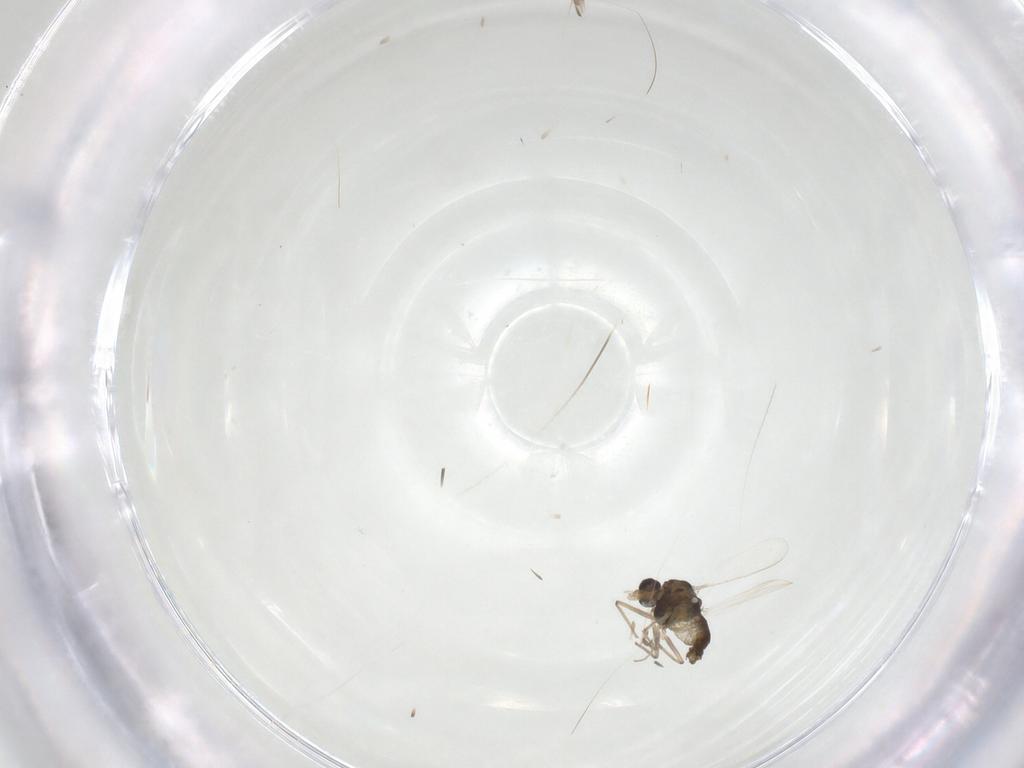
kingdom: Animalia
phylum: Arthropoda
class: Insecta
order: Diptera
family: Chironomidae
